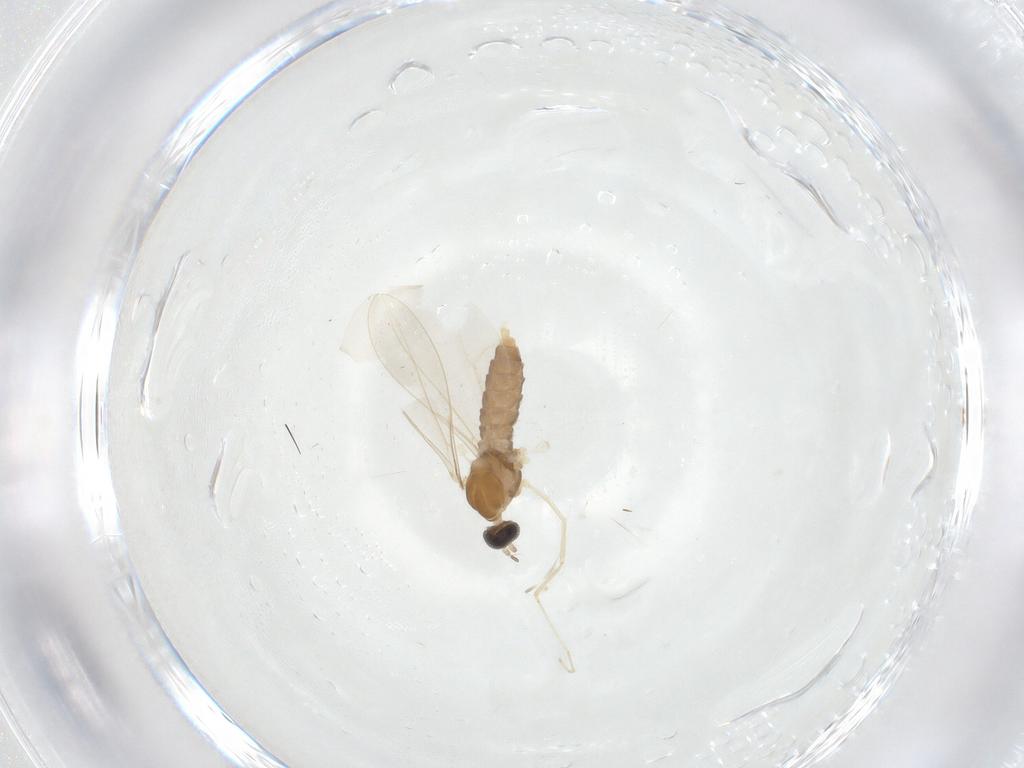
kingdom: Animalia
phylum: Arthropoda
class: Insecta
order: Diptera
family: Cecidomyiidae
